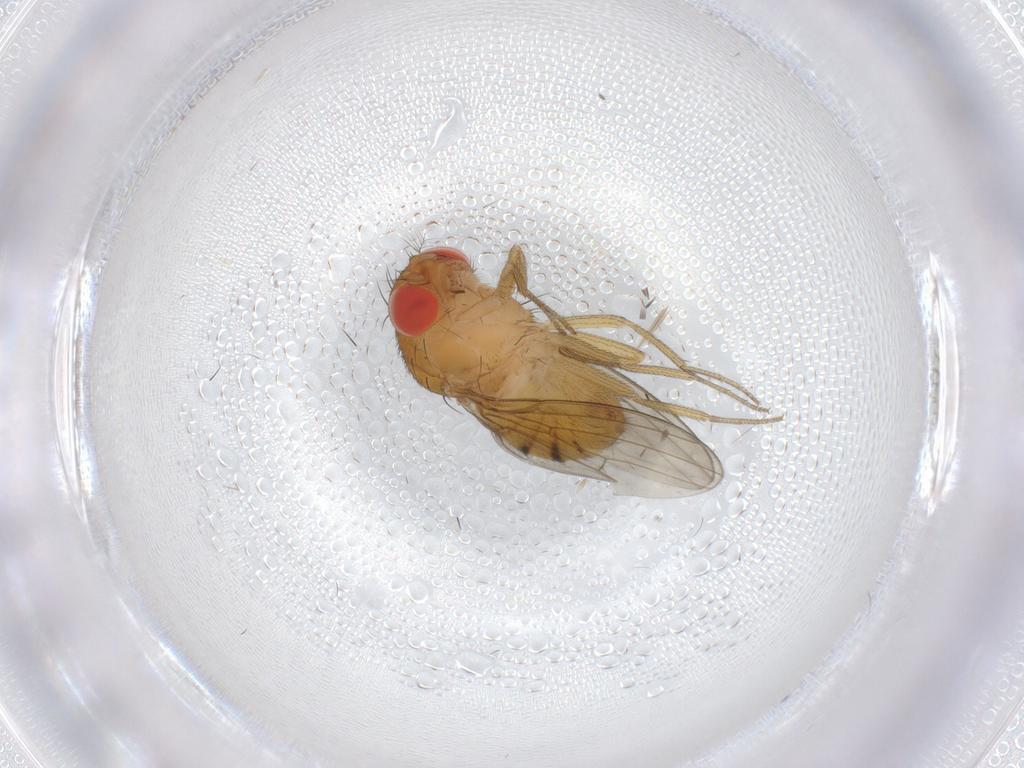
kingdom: Animalia
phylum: Arthropoda
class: Insecta
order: Diptera
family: Drosophilidae
